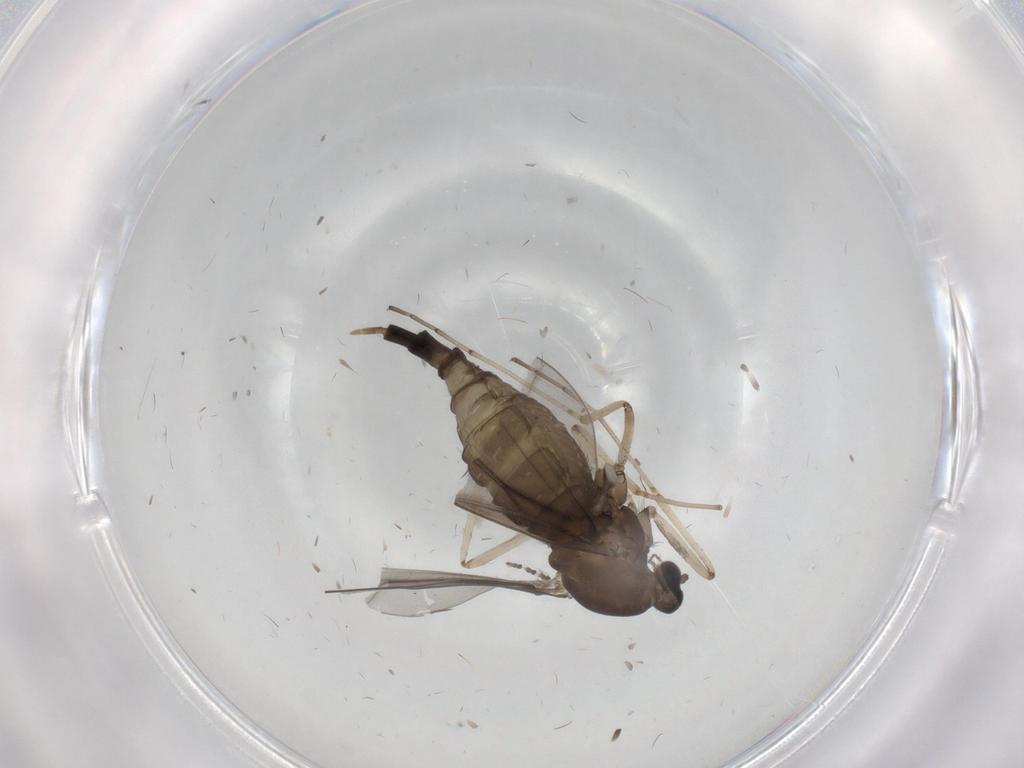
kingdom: Animalia
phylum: Arthropoda
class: Insecta
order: Diptera
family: Cecidomyiidae
